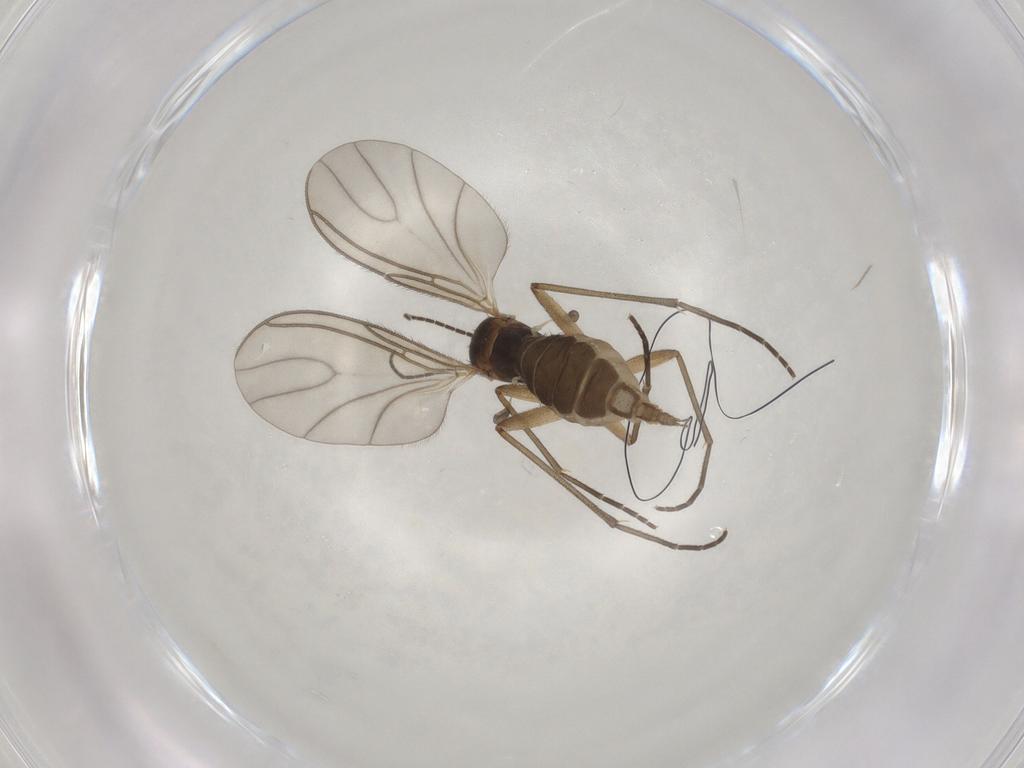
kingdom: Animalia
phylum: Arthropoda
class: Insecta
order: Diptera
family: Sciaridae
